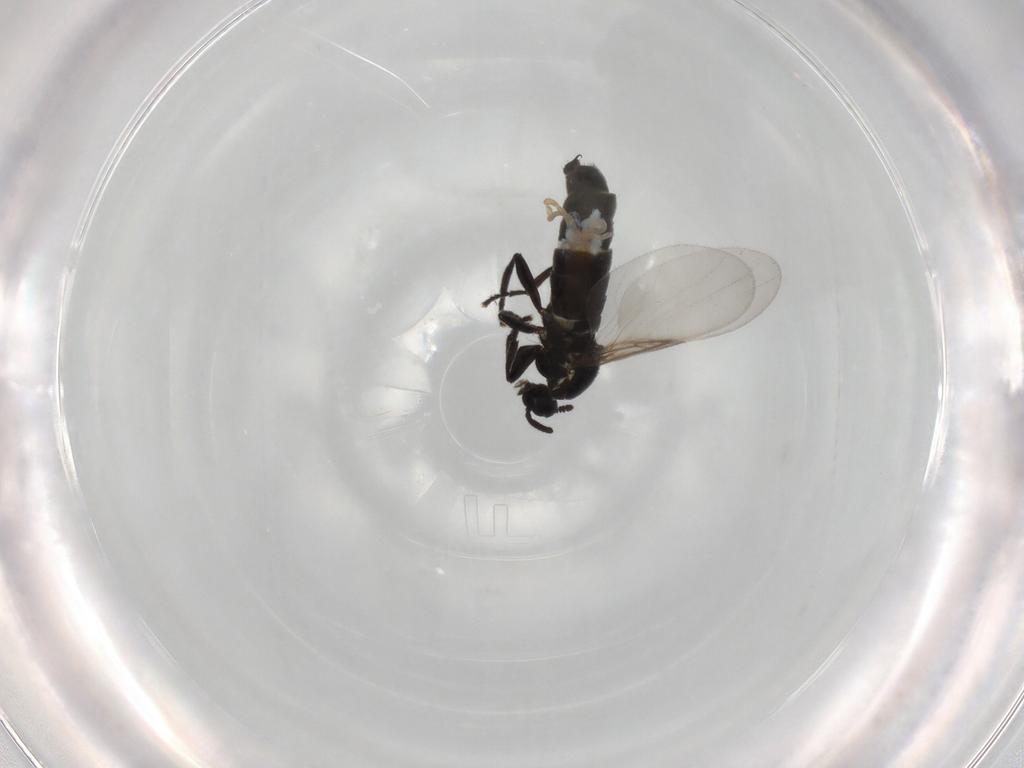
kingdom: Animalia
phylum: Arthropoda
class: Insecta
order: Diptera
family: Scatopsidae
